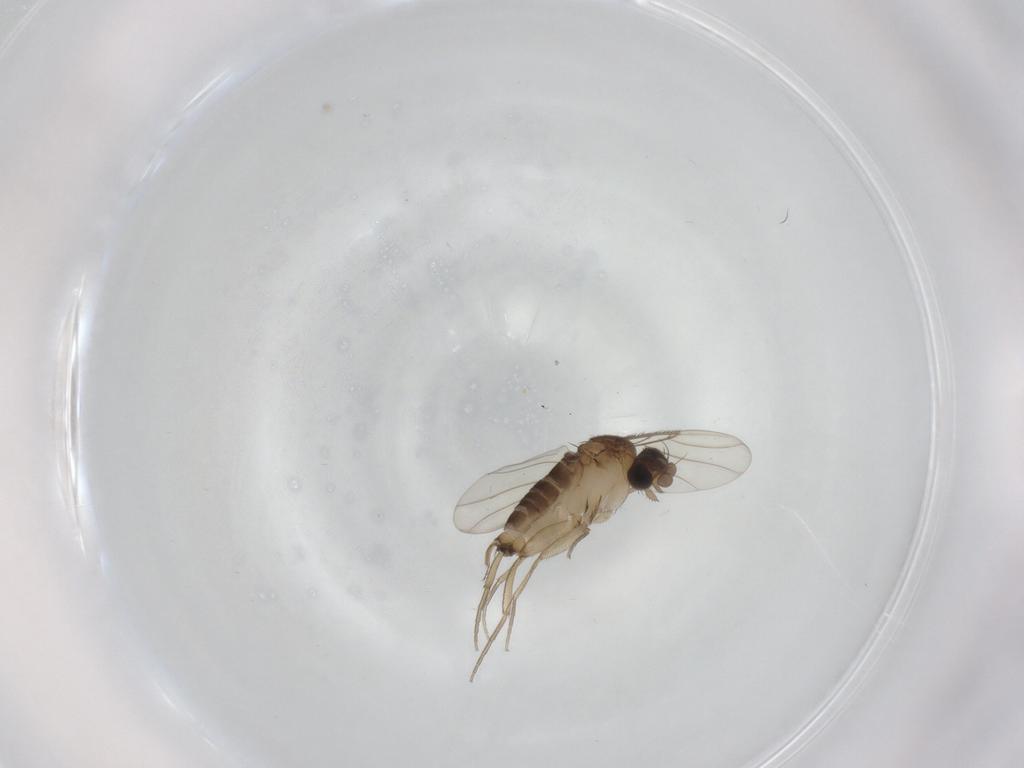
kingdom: Animalia
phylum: Arthropoda
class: Insecta
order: Diptera
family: Phoridae
